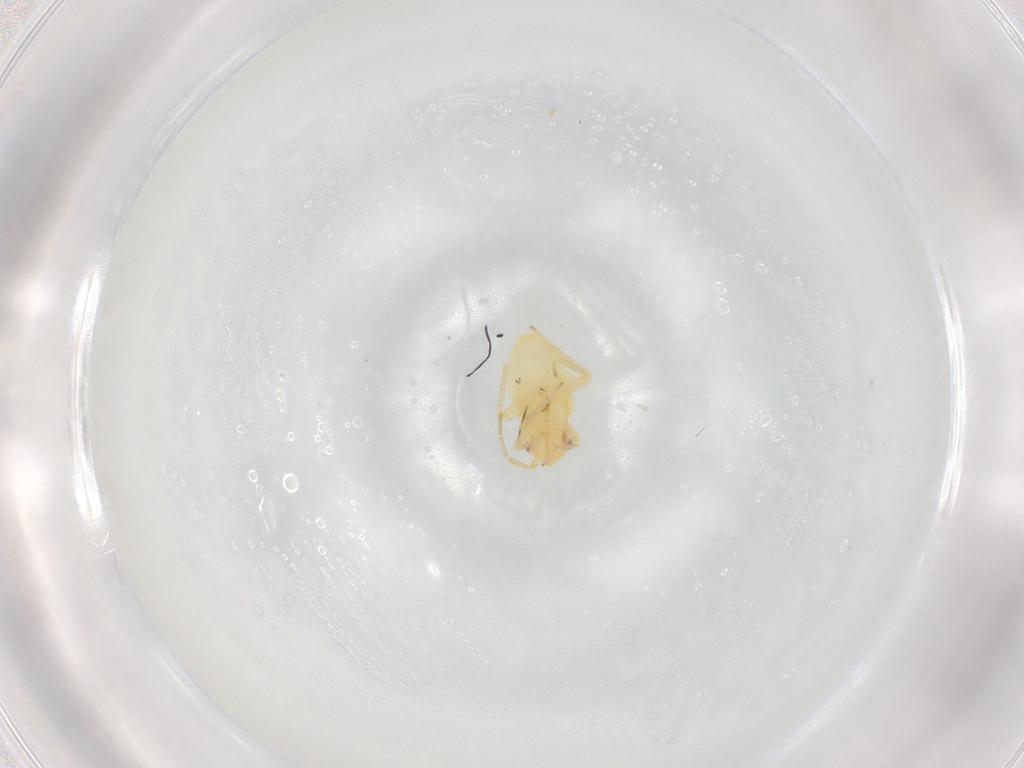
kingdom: Animalia
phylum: Arthropoda
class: Insecta
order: Hemiptera
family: Miridae
